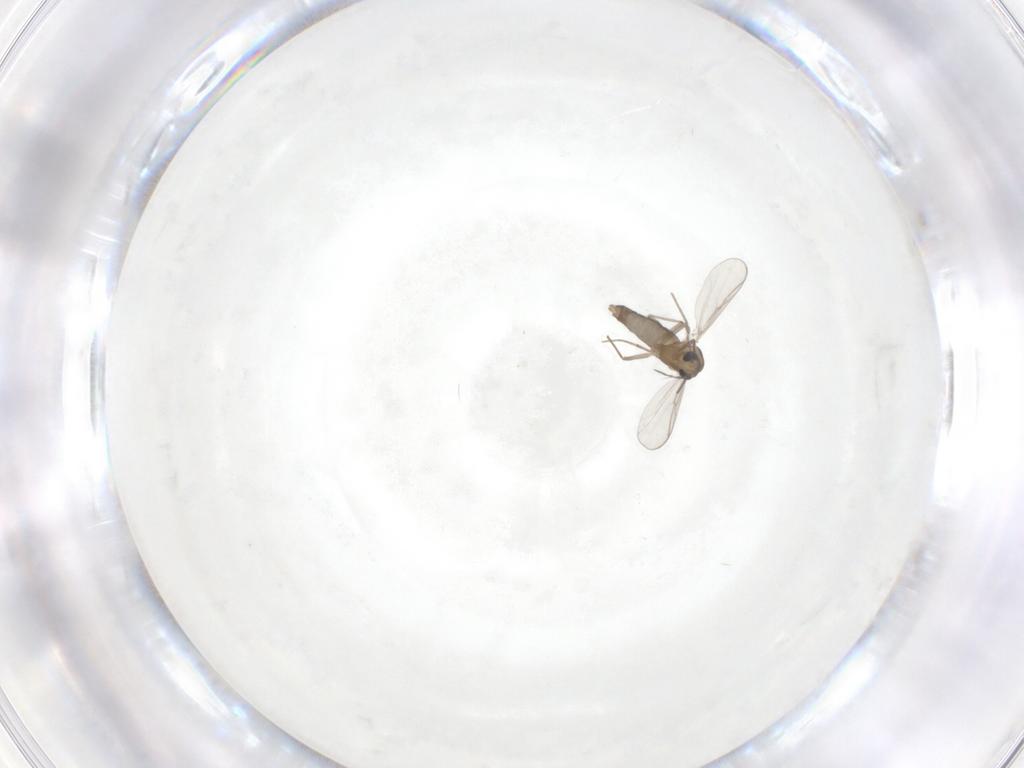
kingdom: Animalia
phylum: Arthropoda
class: Insecta
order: Diptera
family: Chironomidae
